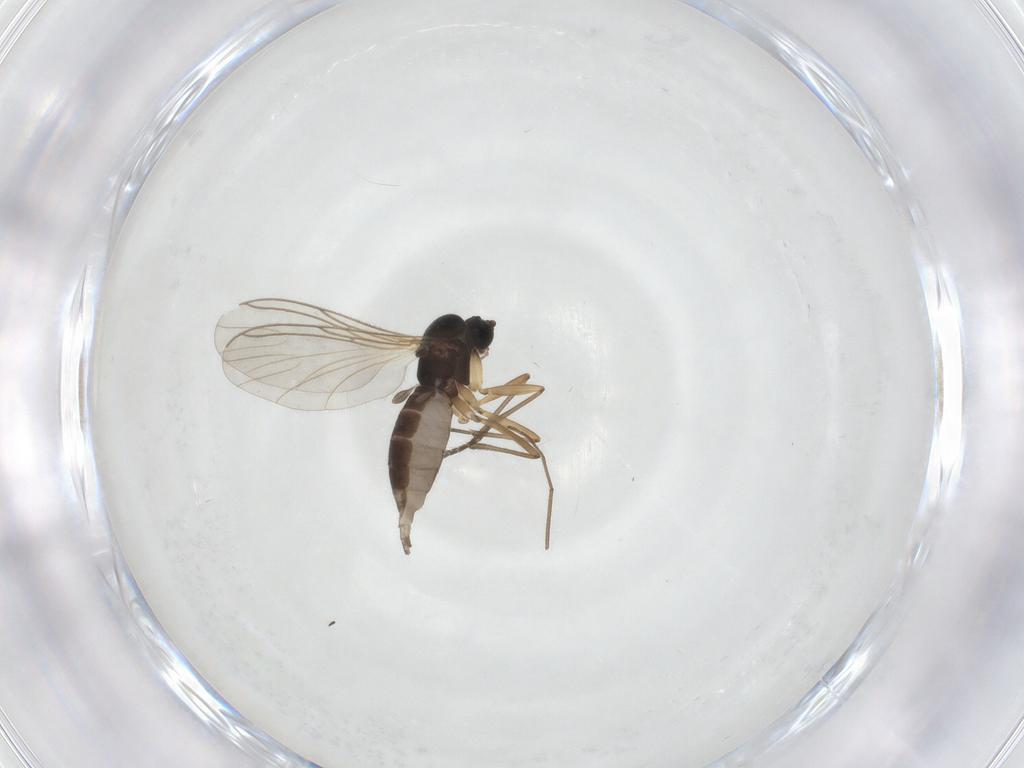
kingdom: Animalia
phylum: Arthropoda
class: Insecta
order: Diptera
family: Sciaridae
